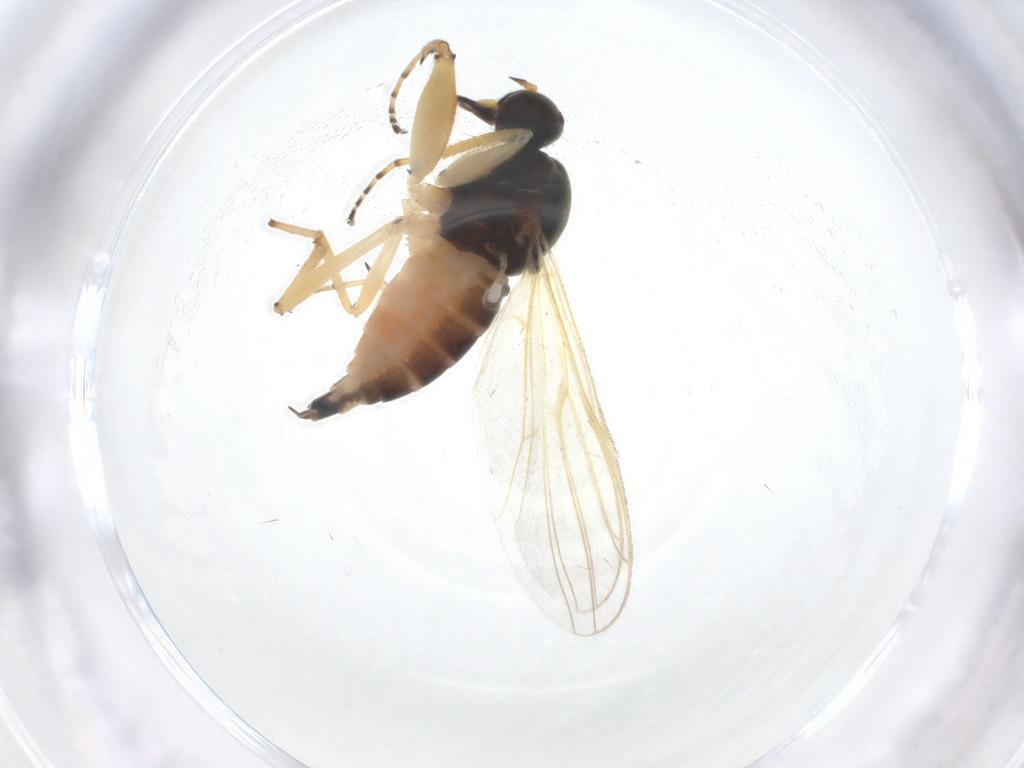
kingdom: Animalia
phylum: Arthropoda
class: Insecta
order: Diptera
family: Hybotidae
